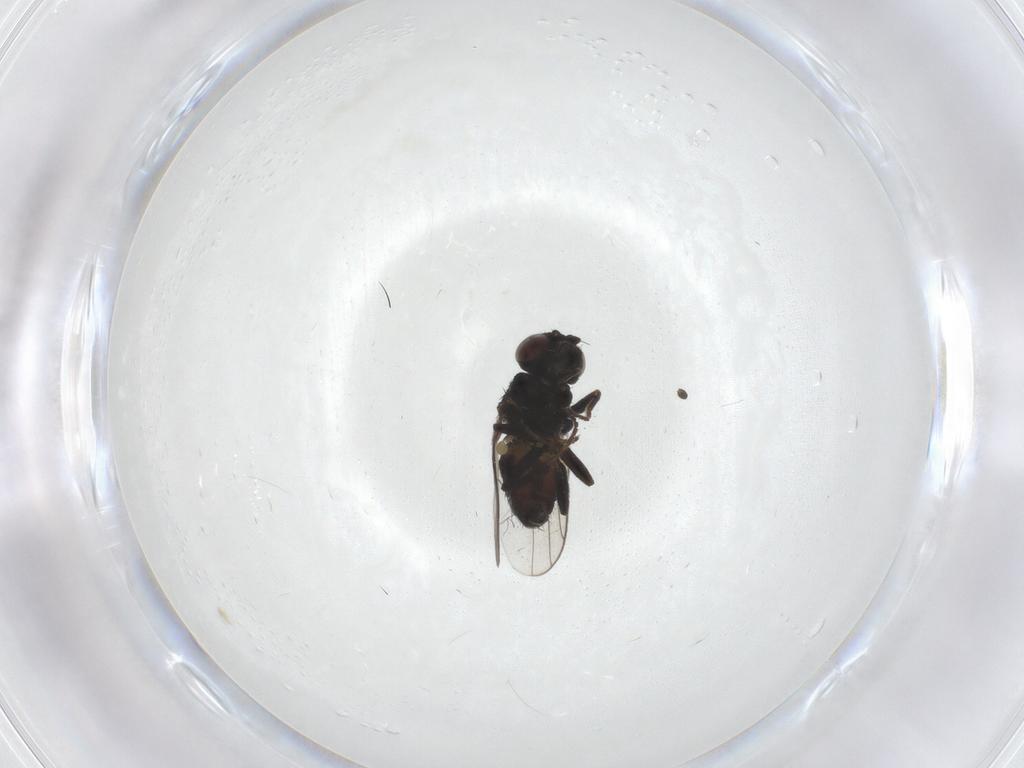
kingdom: Animalia
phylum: Arthropoda
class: Insecta
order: Diptera
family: Chloropidae
